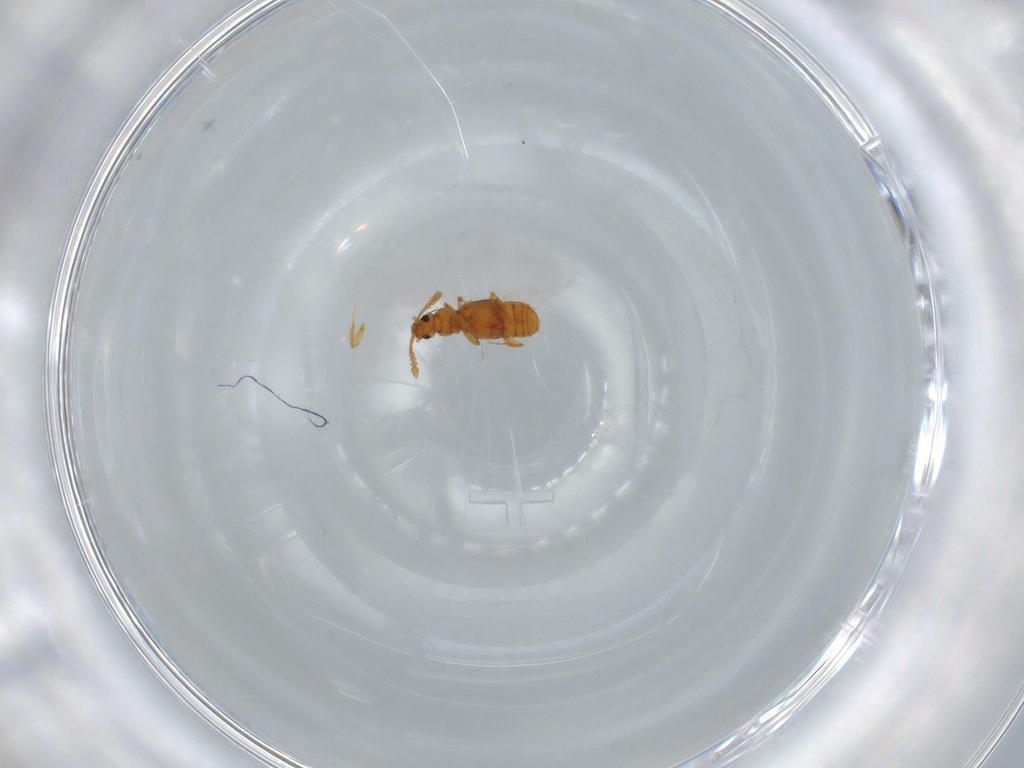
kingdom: Animalia
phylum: Arthropoda
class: Insecta
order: Coleoptera
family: Staphylinidae
